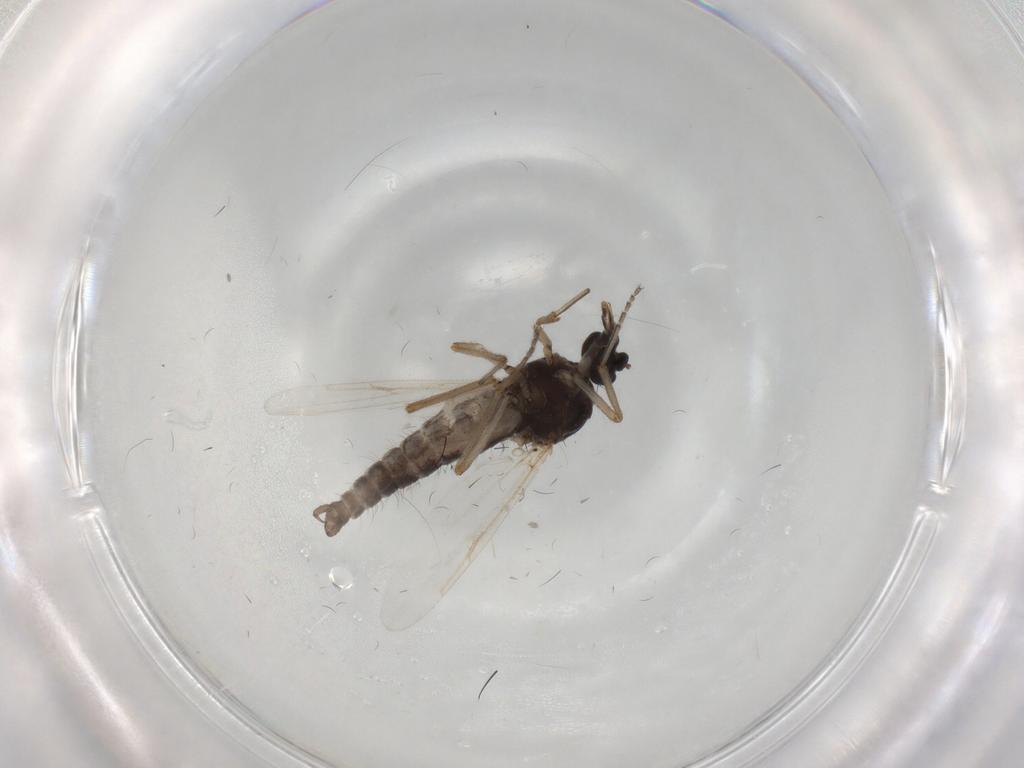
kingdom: Animalia
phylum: Arthropoda
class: Insecta
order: Diptera
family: Ceratopogonidae
